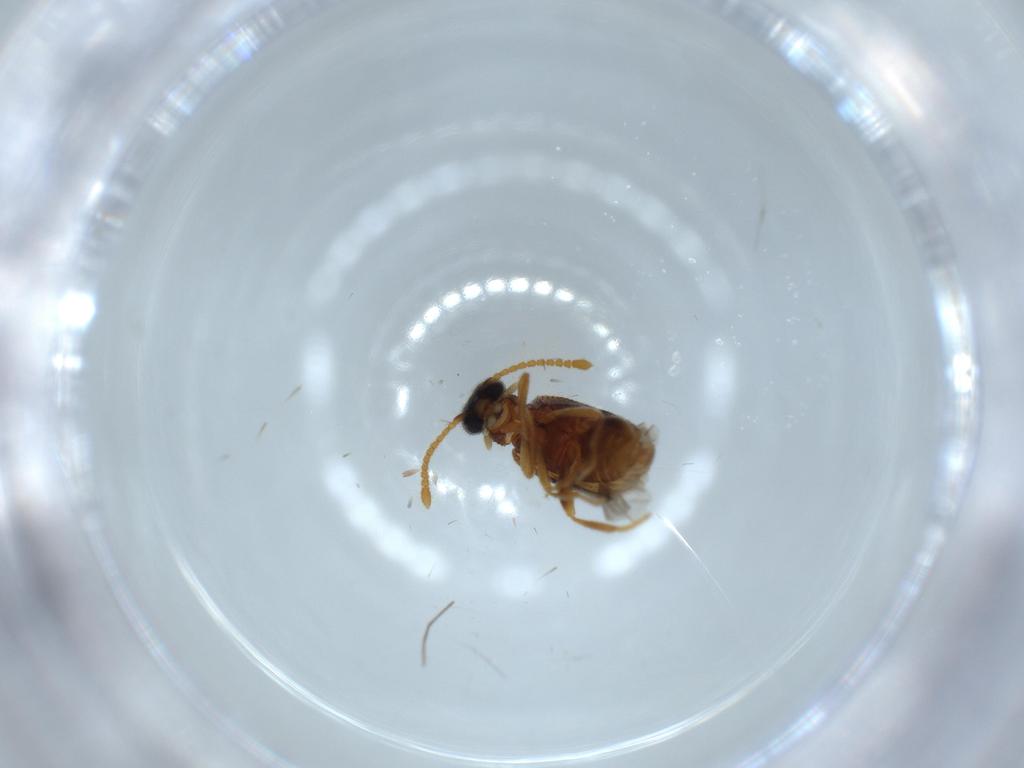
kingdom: Animalia
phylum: Arthropoda
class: Insecta
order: Coleoptera
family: Aderidae
